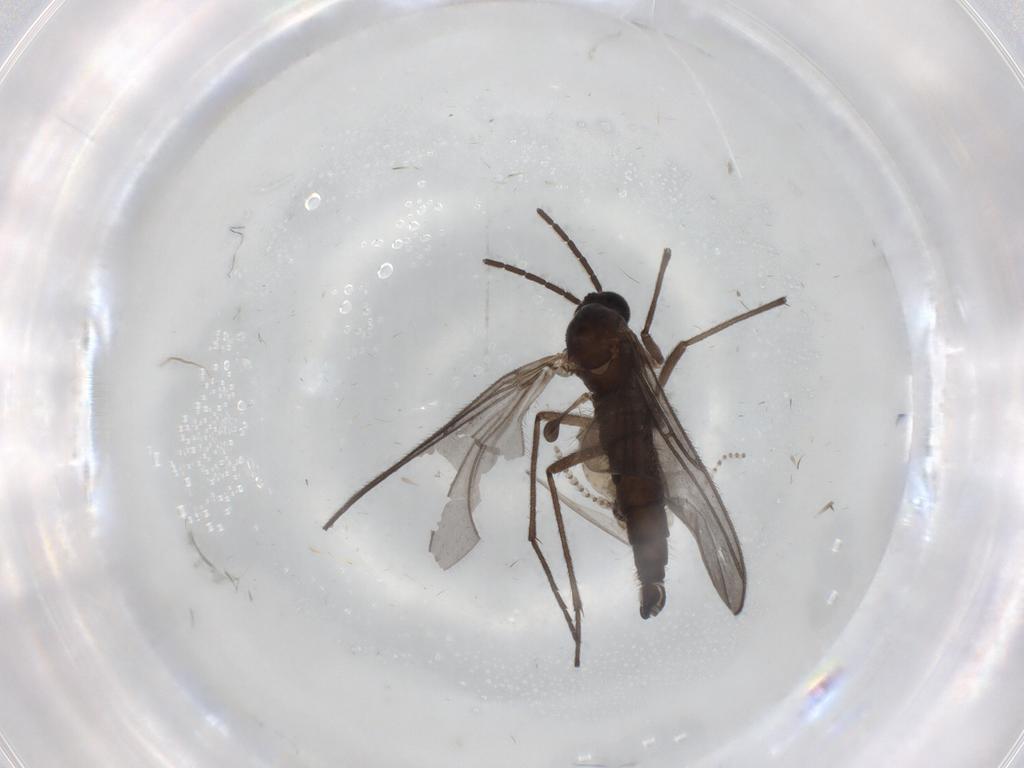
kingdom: Animalia
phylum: Arthropoda
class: Insecta
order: Diptera
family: Sciaridae
